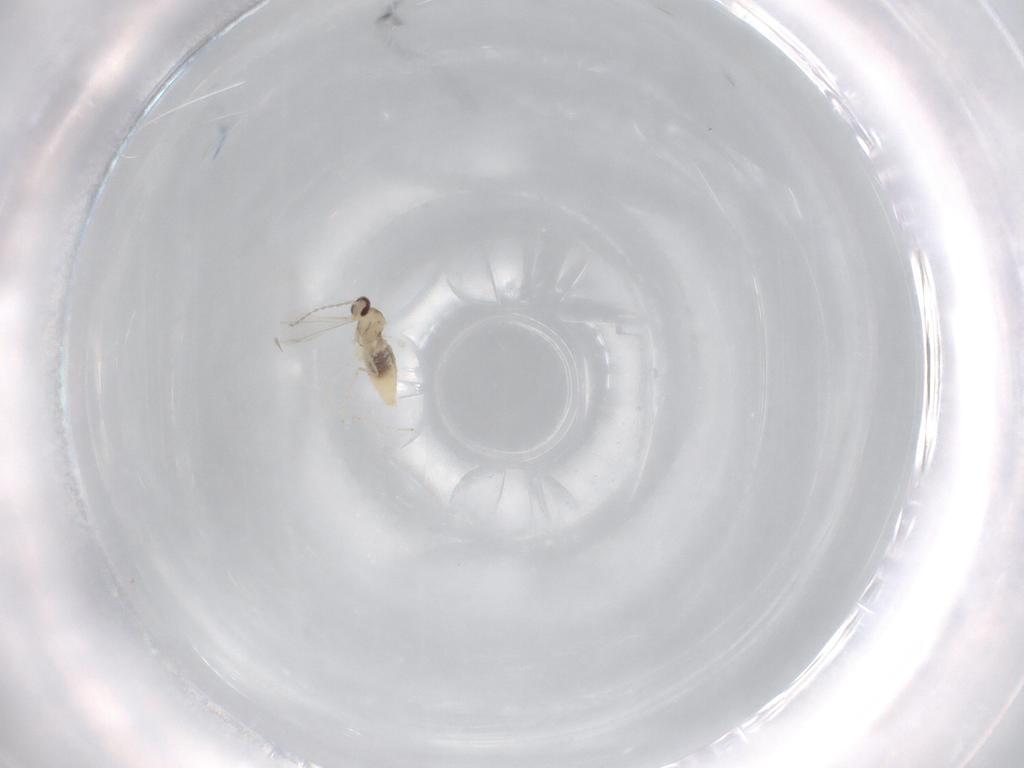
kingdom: Animalia
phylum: Arthropoda
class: Insecta
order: Diptera
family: Cecidomyiidae
